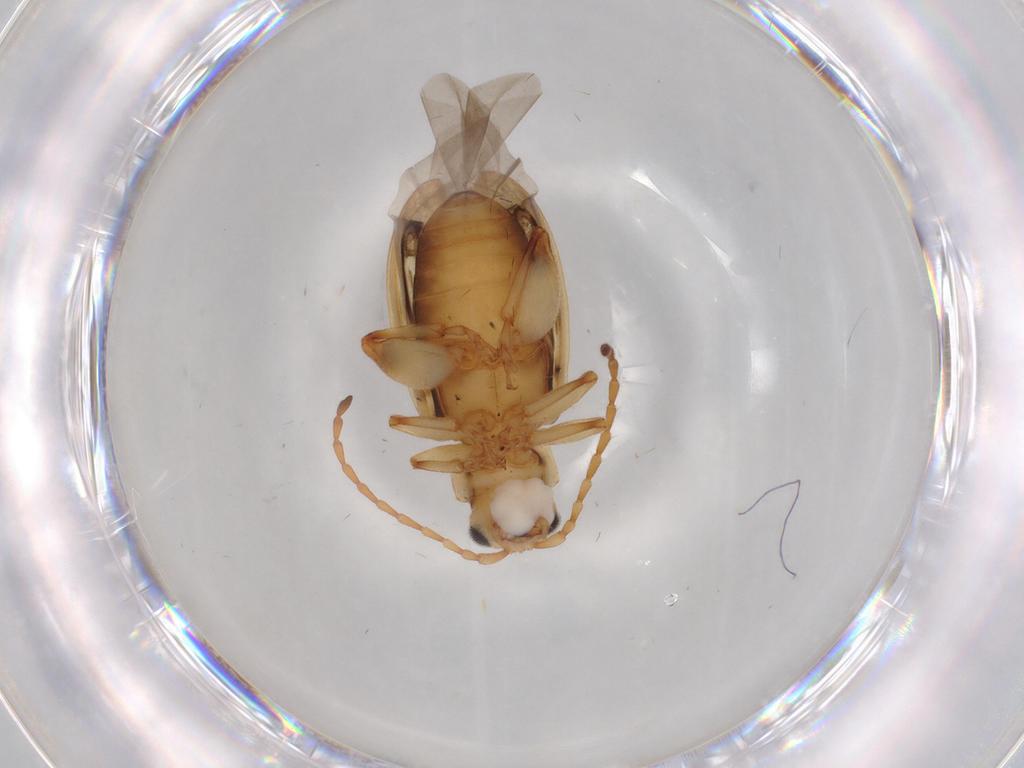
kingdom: Animalia
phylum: Arthropoda
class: Insecta
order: Coleoptera
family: Chrysomelidae
